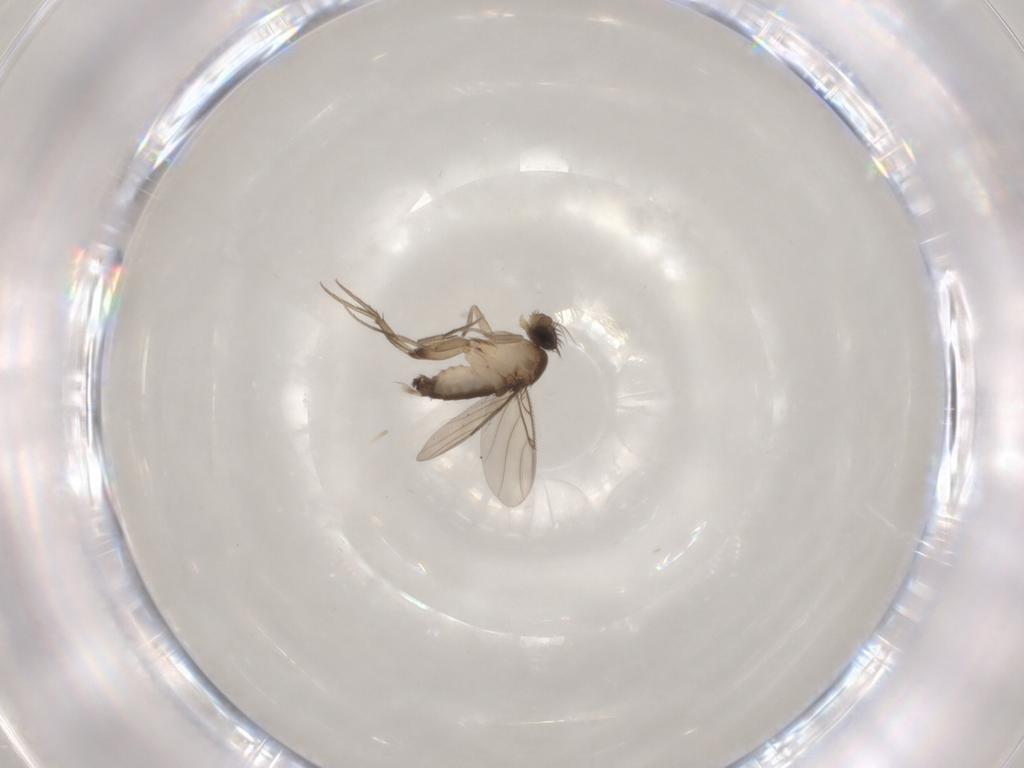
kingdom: Animalia
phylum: Arthropoda
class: Insecta
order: Diptera
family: Phoridae
